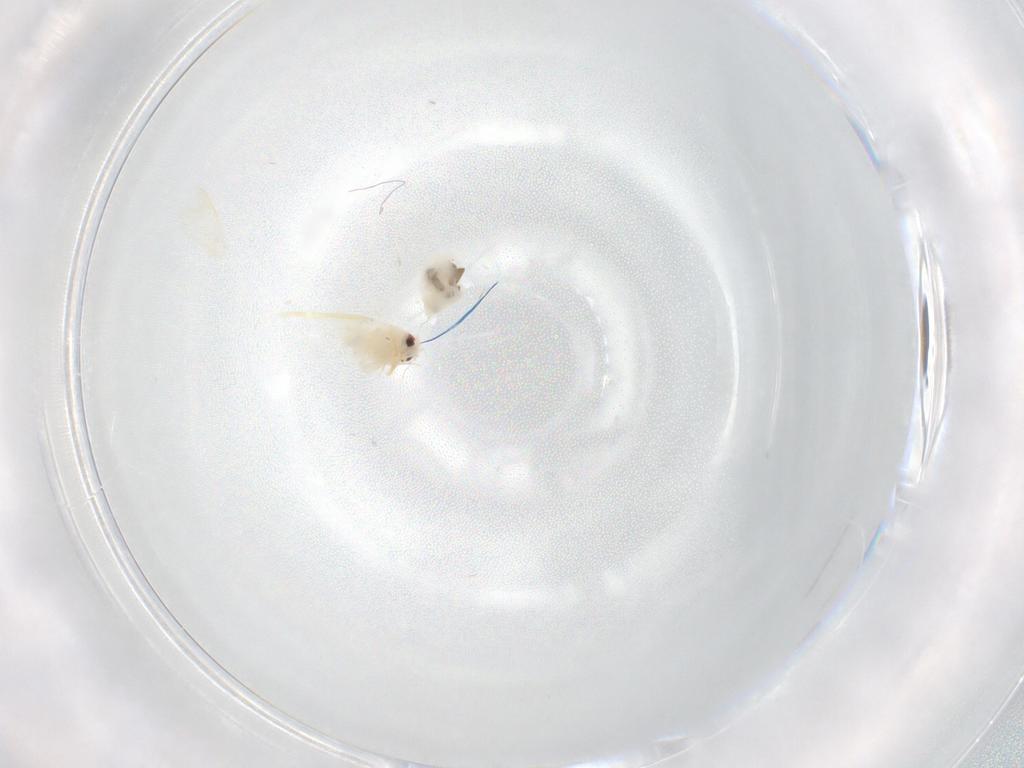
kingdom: Animalia
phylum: Arthropoda
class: Insecta
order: Hemiptera
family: Aleyrodidae
